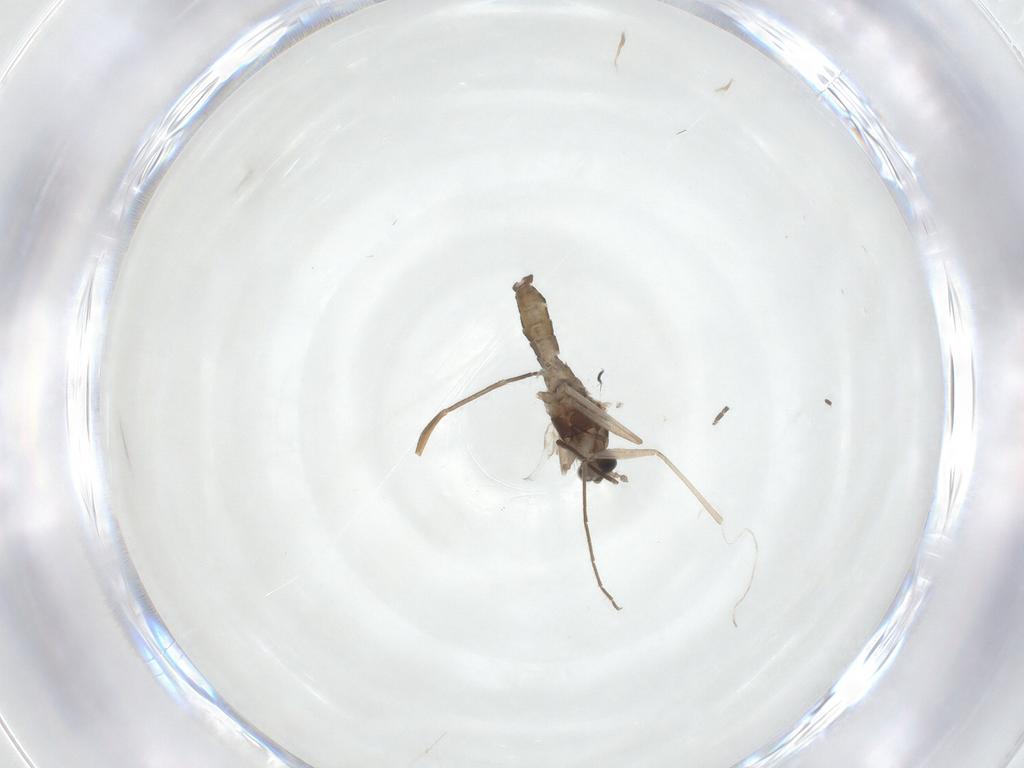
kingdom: Animalia
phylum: Arthropoda
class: Insecta
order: Diptera
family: Cecidomyiidae
